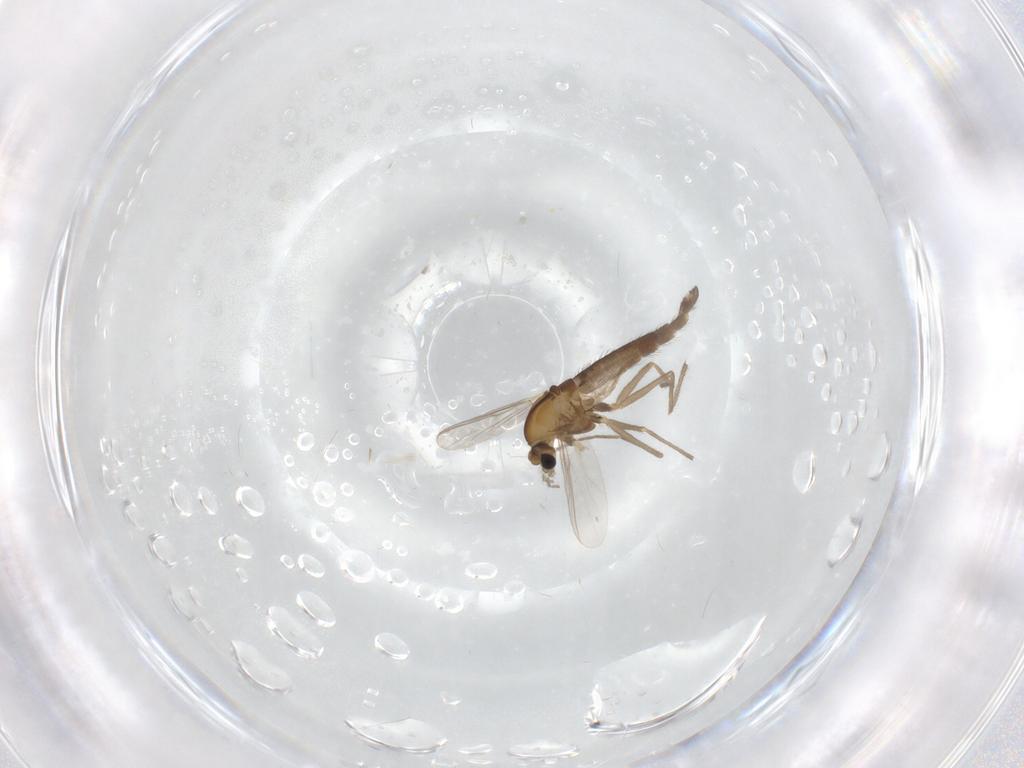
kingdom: Animalia
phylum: Arthropoda
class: Insecta
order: Diptera
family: Chironomidae
